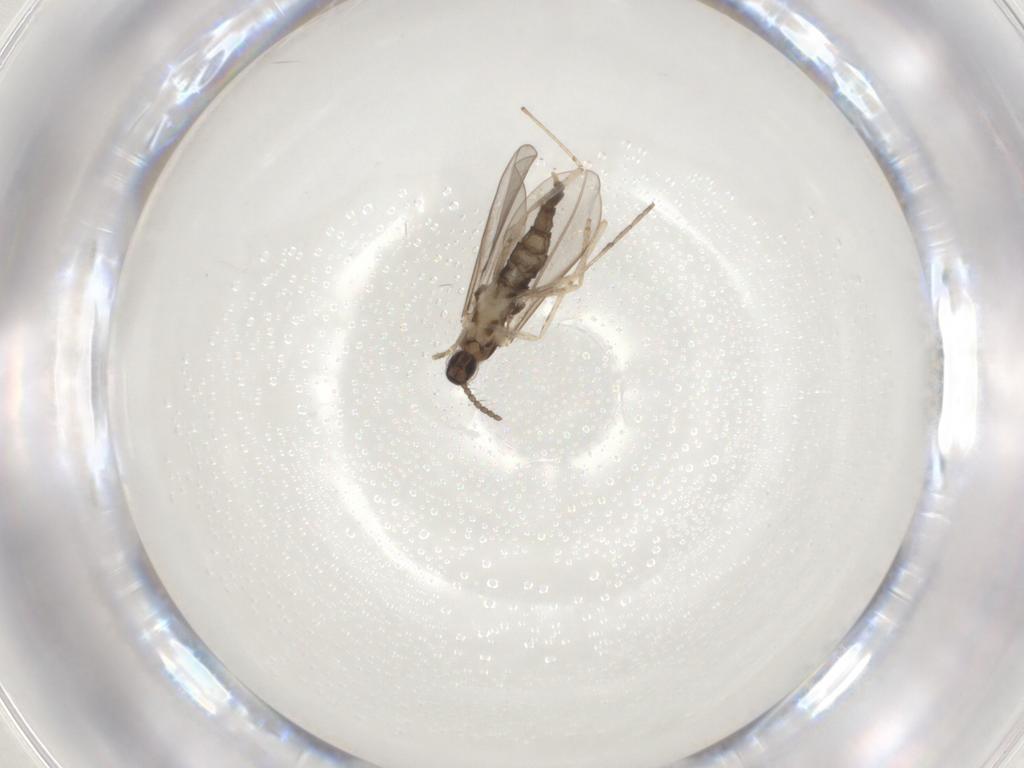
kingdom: Animalia
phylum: Arthropoda
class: Insecta
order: Diptera
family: Cecidomyiidae
